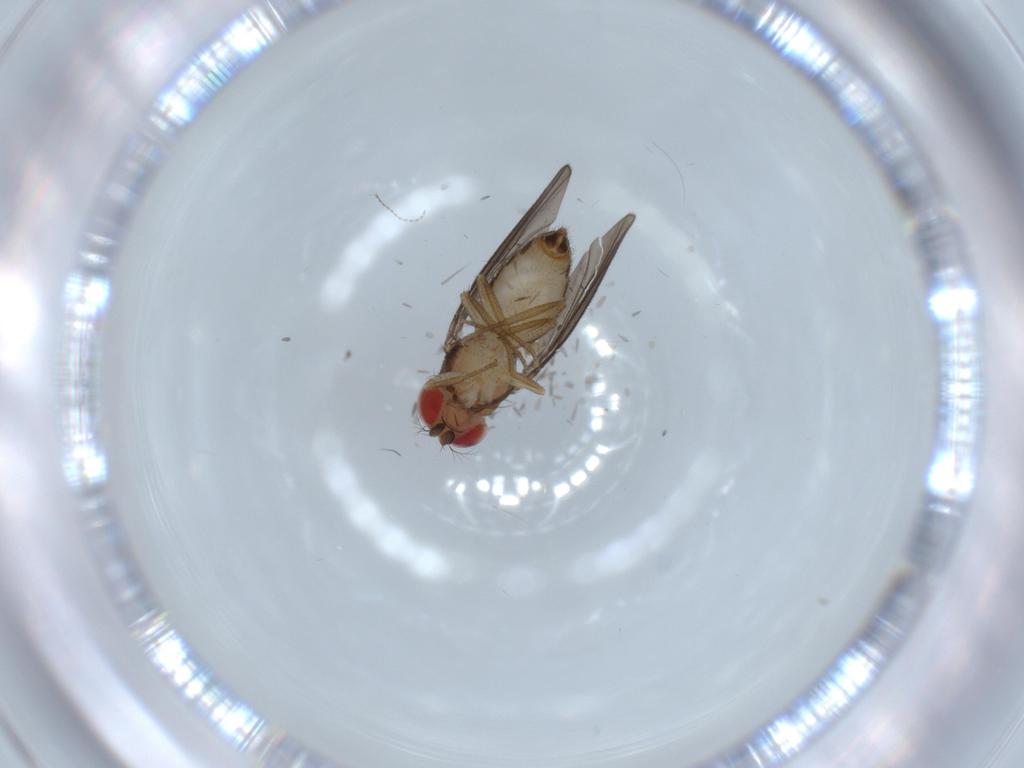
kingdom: Animalia
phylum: Arthropoda
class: Insecta
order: Diptera
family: Drosophilidae
